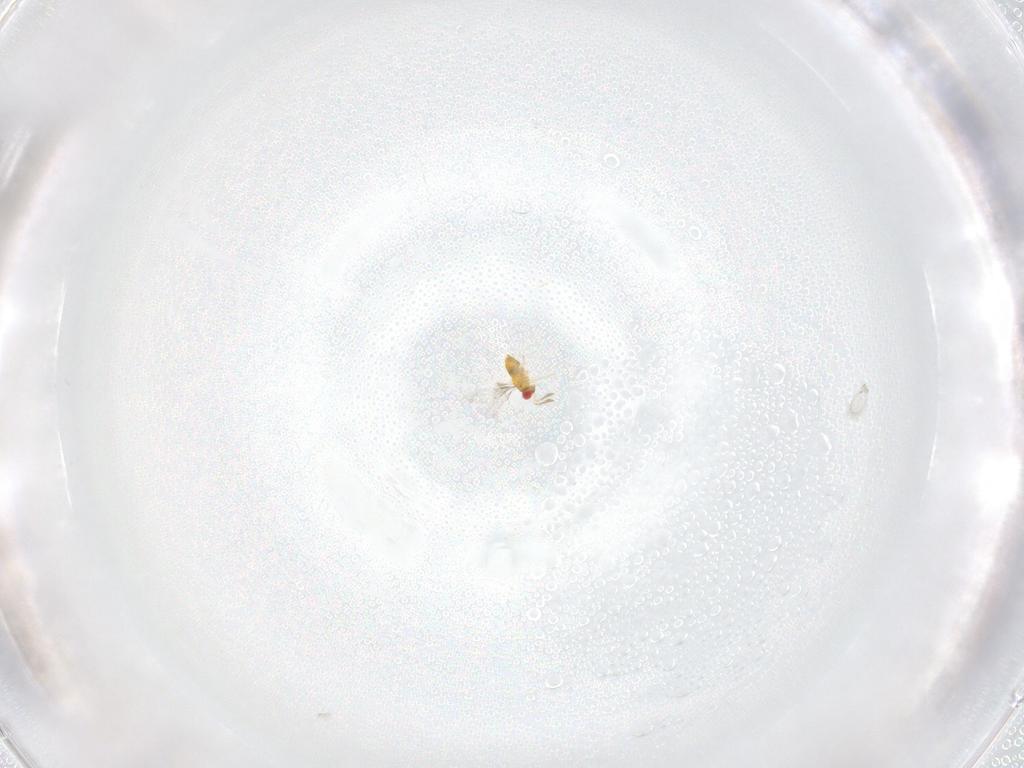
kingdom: Animalia
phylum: Arthropoda
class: Insecta
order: Hymenoptera
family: Trichogrammatidae
